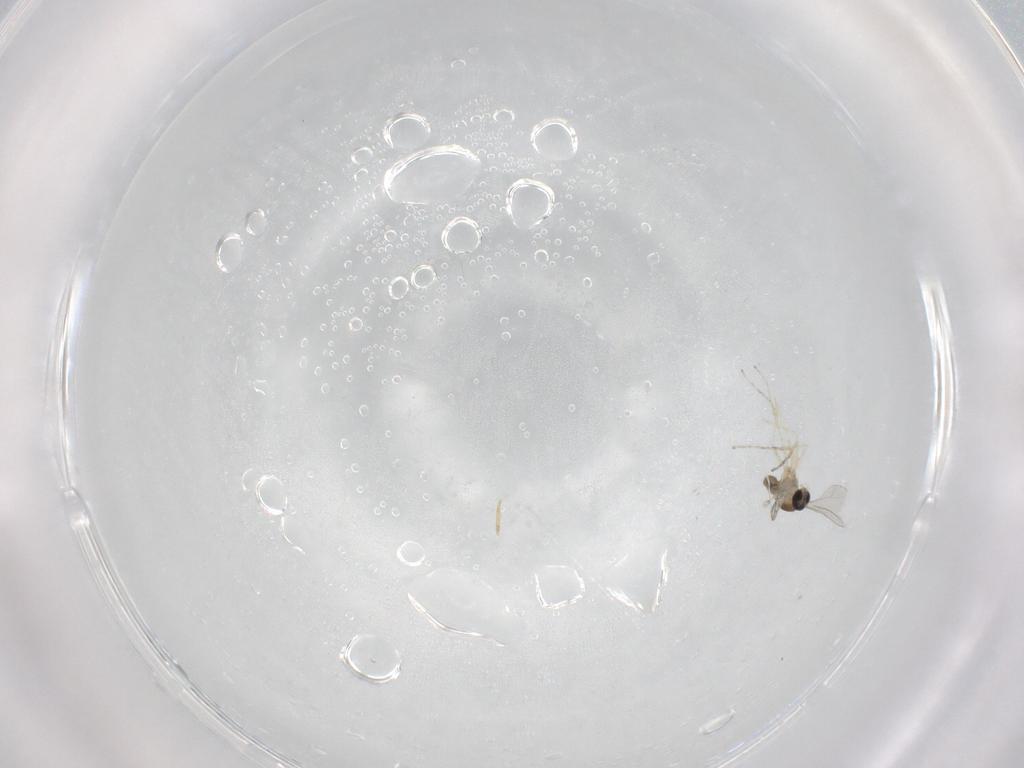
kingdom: Animalia
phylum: Arthropoda
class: Insecta
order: Diptera
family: Cecidomyiidae
